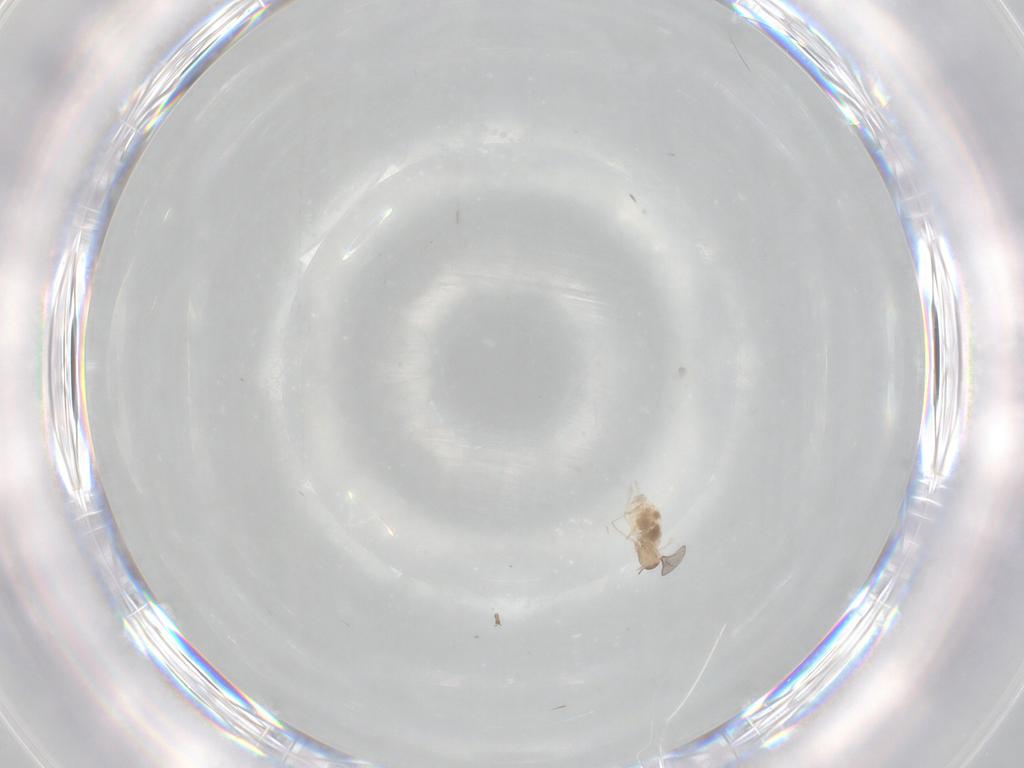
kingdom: Animalia
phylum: Arthropoda
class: Insecta
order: Diptera
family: Cecidomyiidae
